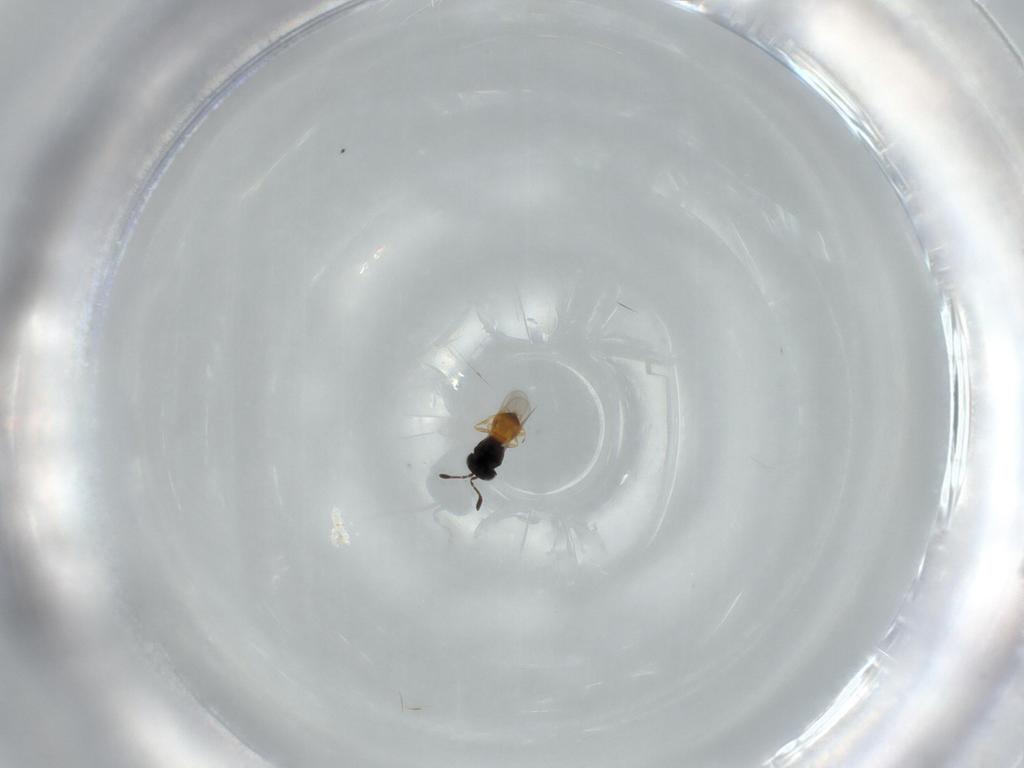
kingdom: Animalia
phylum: Arthropoda
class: Insecta
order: Hymenoptera
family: Scelionidae
